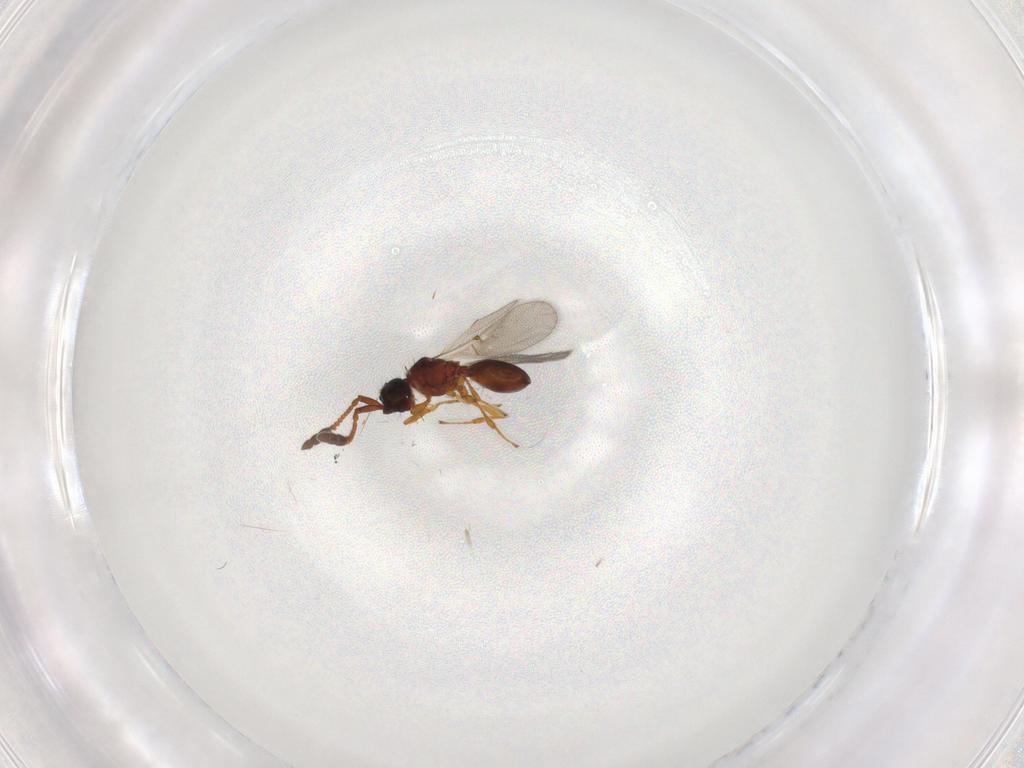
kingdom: Animalia
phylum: Arthropoda
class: Insecta
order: Hymenoptera
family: Diapriidae
